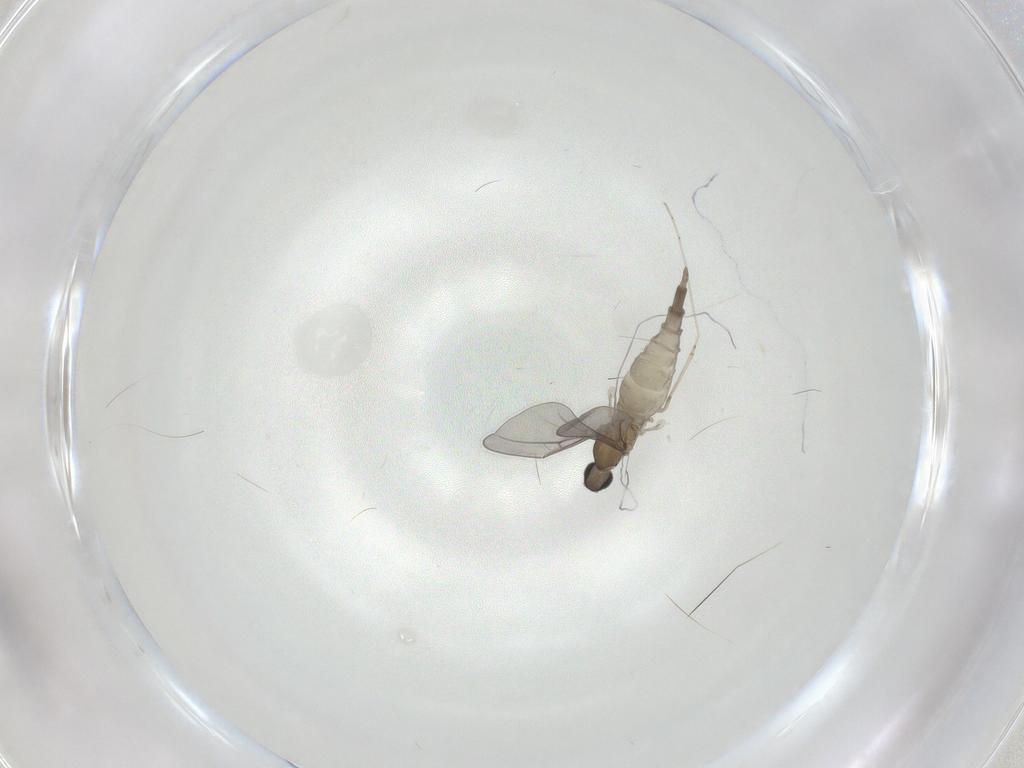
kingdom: Animalia
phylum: Arthropoda
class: Insecta
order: Diptera
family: Cecidomyiidae
